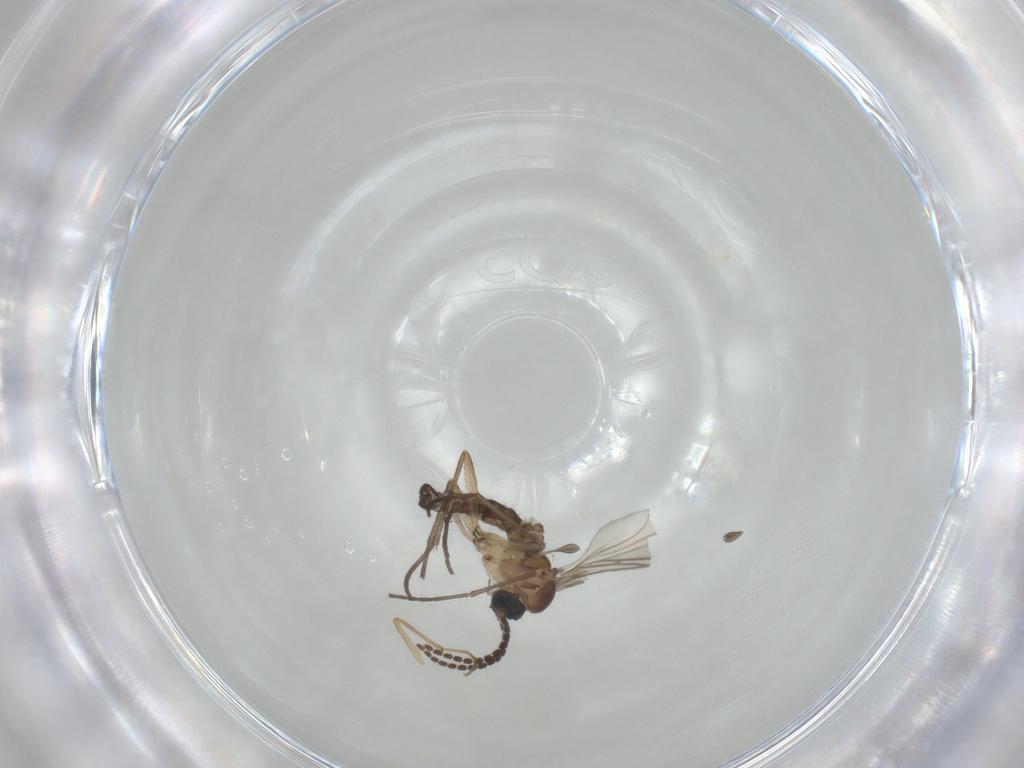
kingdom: Animalia
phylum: Arthropoda
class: Insecta
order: Diptera
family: Sciaridae
